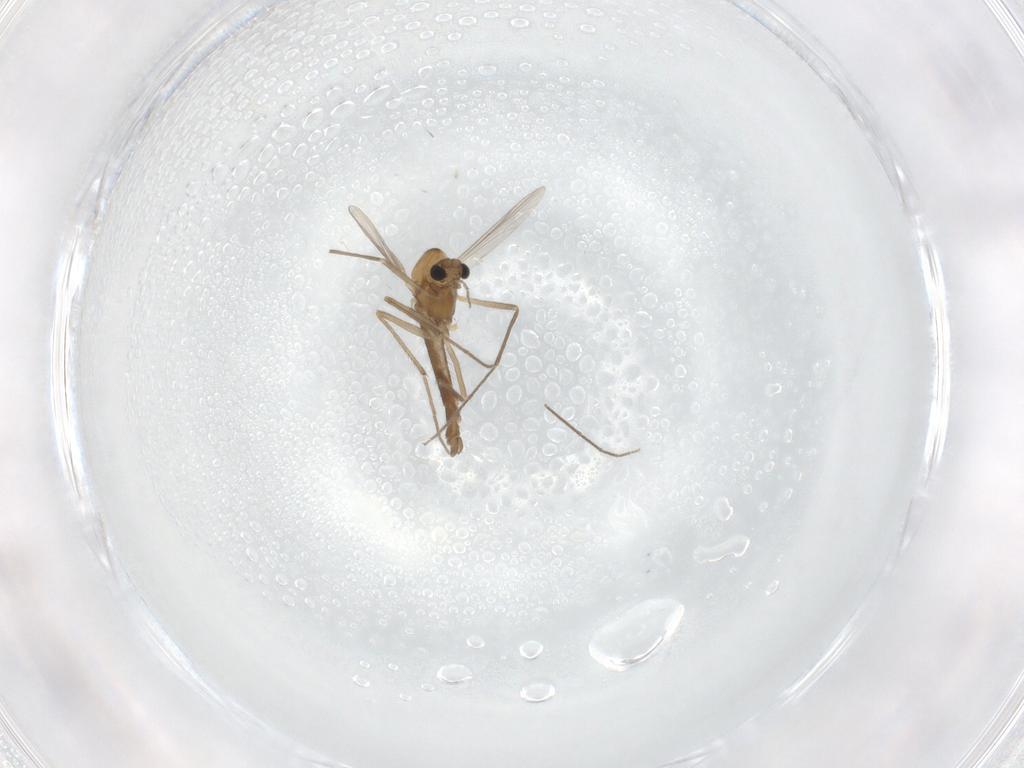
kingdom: Animalia
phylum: Arthropoda
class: Insecta
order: Diptera
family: Chironomidae
